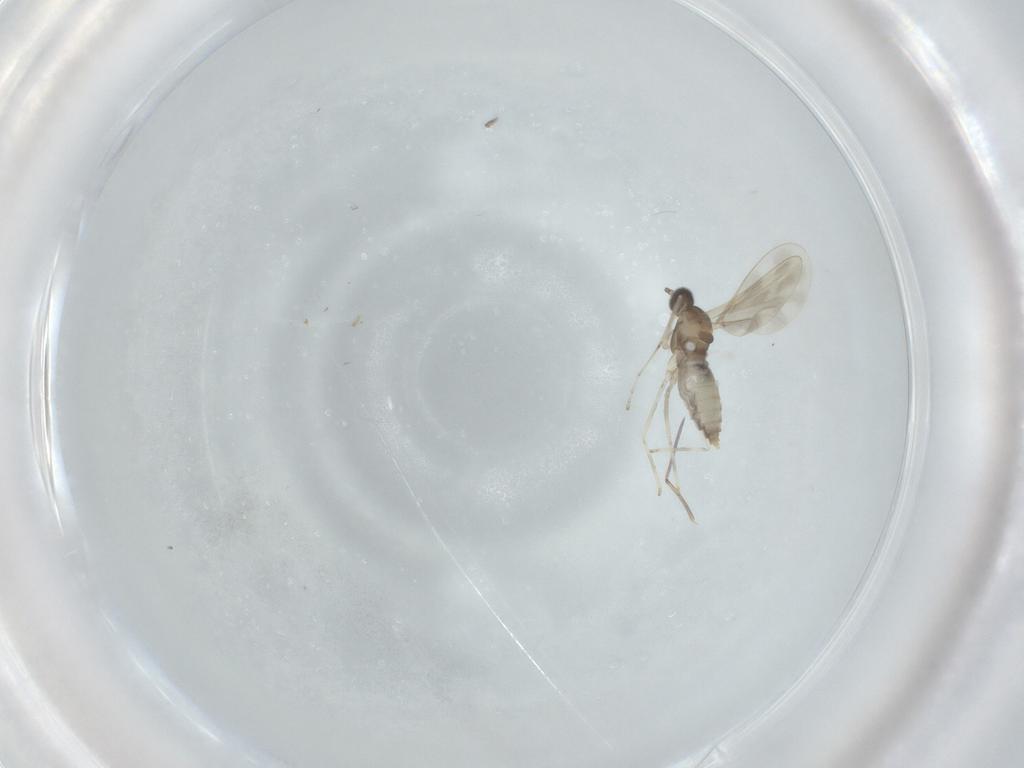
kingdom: Animalia
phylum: Arthropoda
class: Insecta
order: Diptera
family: Cecidomyiidae
